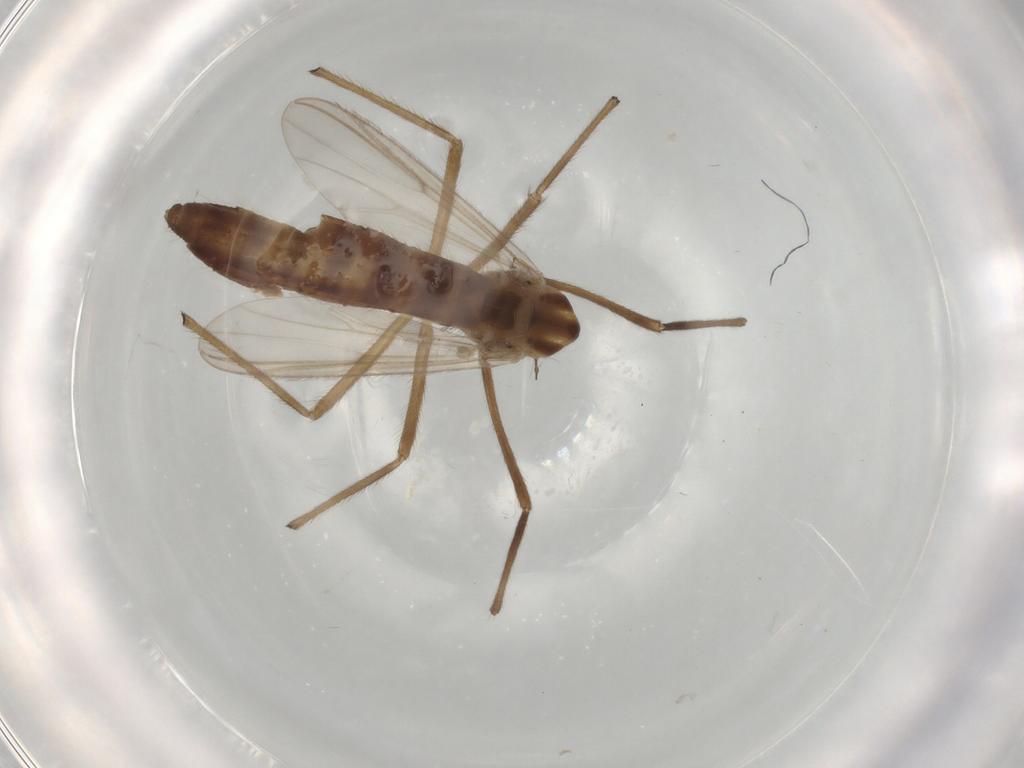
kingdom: Animalia
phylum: Arthropoda
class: Insecta
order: Diptera
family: Chironomidae
